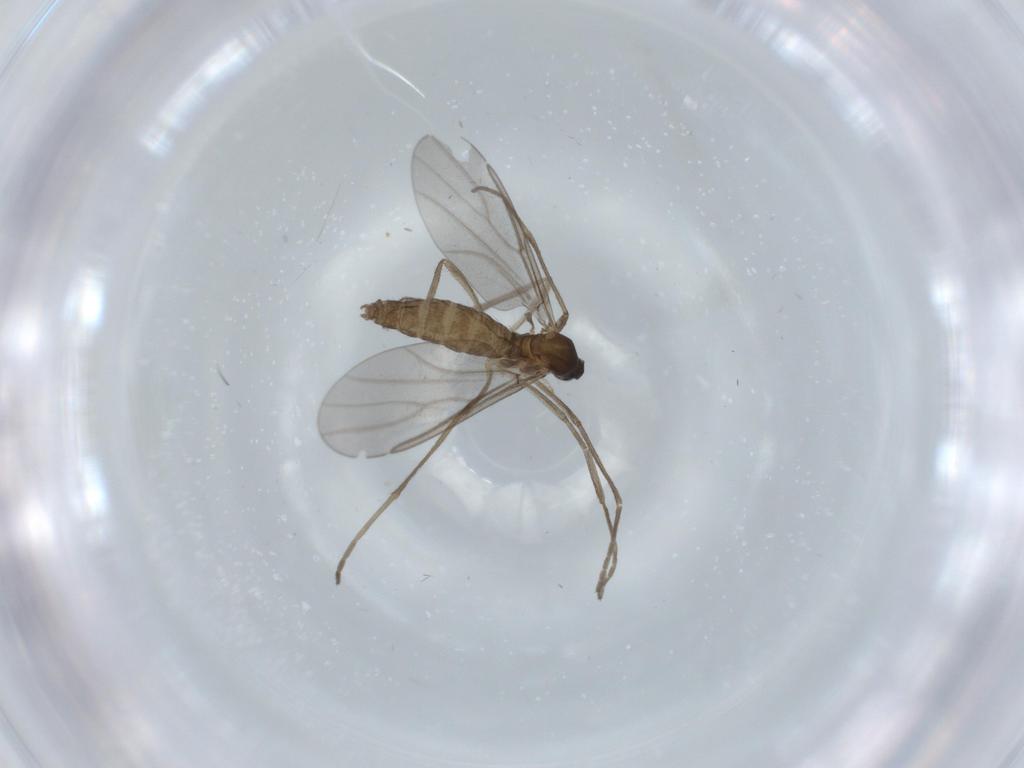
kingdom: Animalia
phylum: Arthropoda
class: Insecta
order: Diptera
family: Cecidomyiidae
